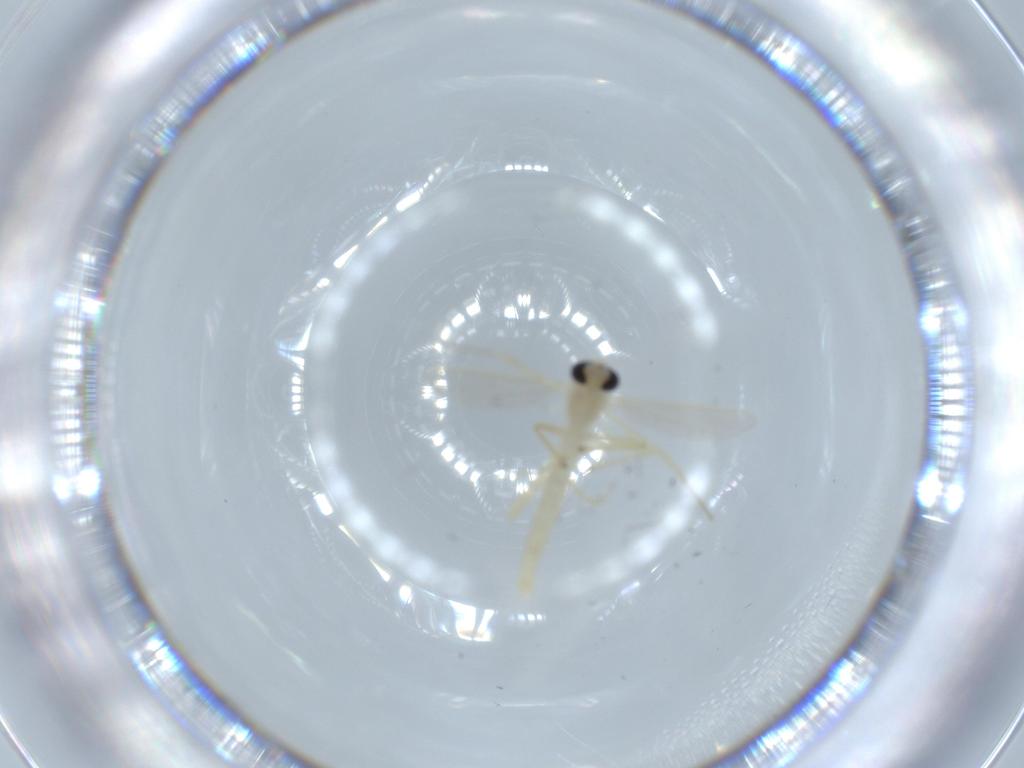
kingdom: Animalia
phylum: Arthropoda
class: Insecta
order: Diptera
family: Chironomidae
